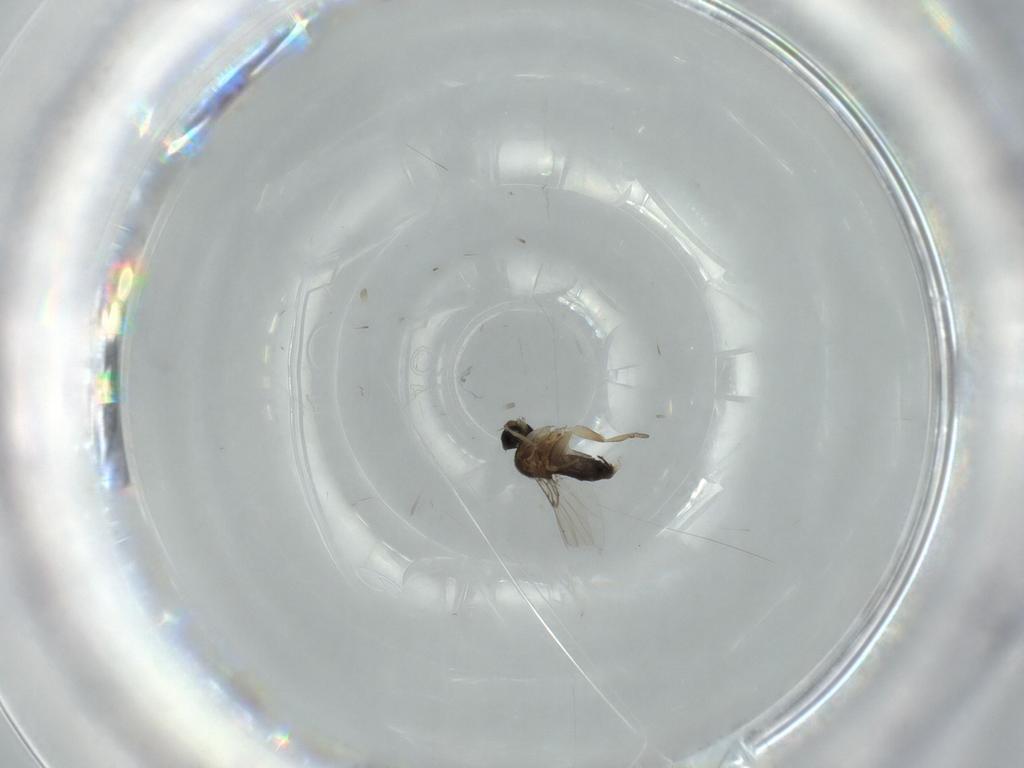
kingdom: Animalia
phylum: Arthropoda
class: Insecta
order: Diptera
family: Phoridae
